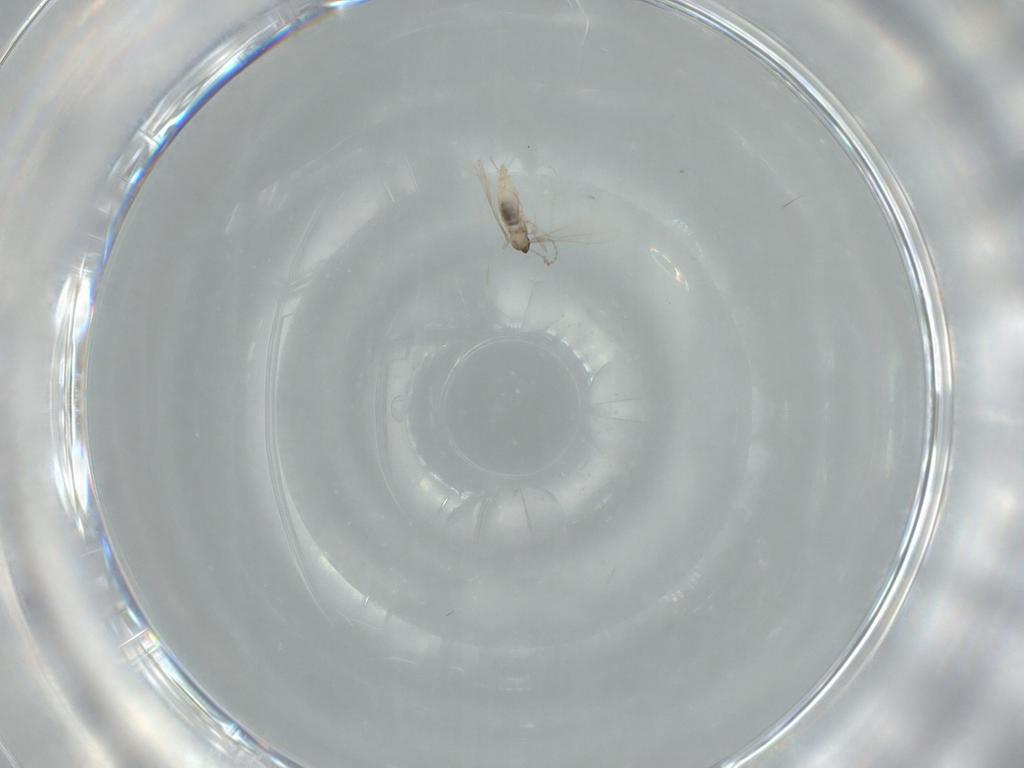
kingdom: Animalia
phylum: Arthropoda
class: Insecta
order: Diptera
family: Cecidomyiidae
